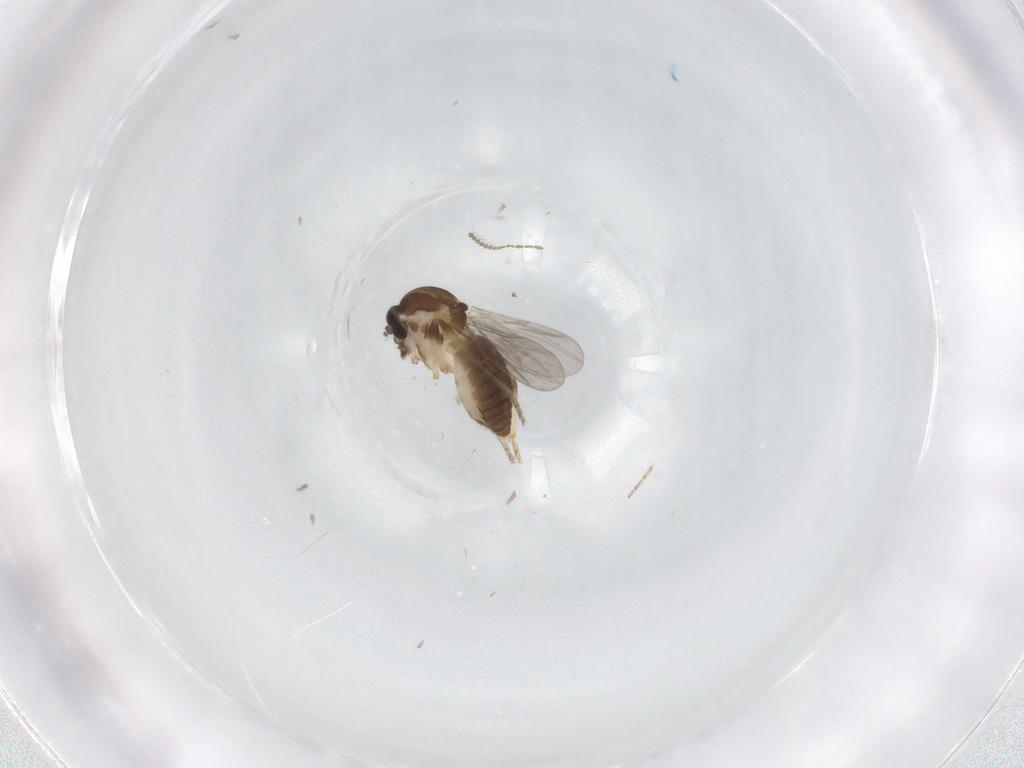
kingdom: Animalia
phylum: Arthropoda
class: Insecta
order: Diptera
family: Ceratopogonidae
